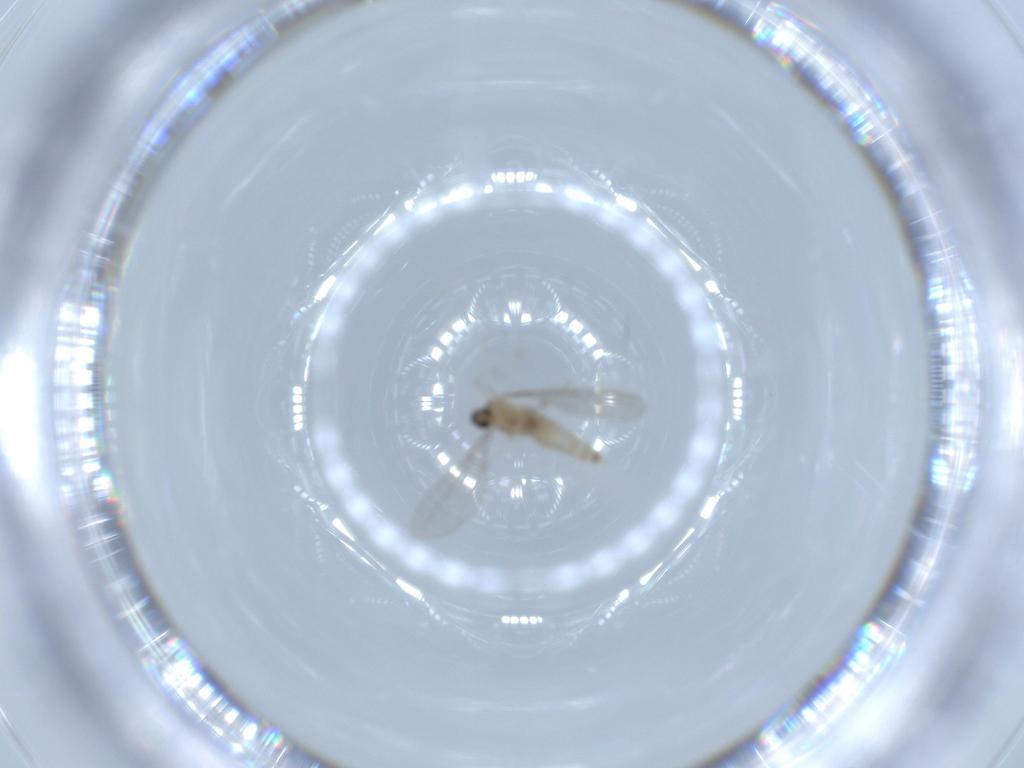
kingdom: Animalia
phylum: Arthropoda
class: Insecta
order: Diptera
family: Cecidomyiidae
